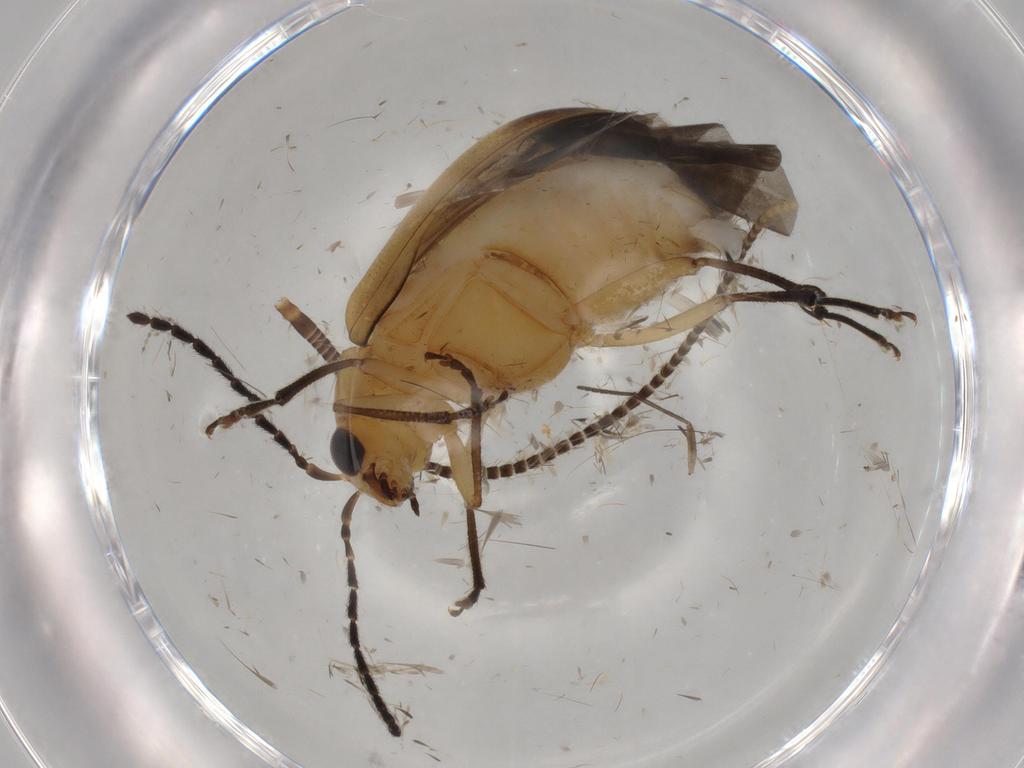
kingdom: Animalia
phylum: Arthropoda
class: Insecta
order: Coleoptera
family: Chrysomelidae
